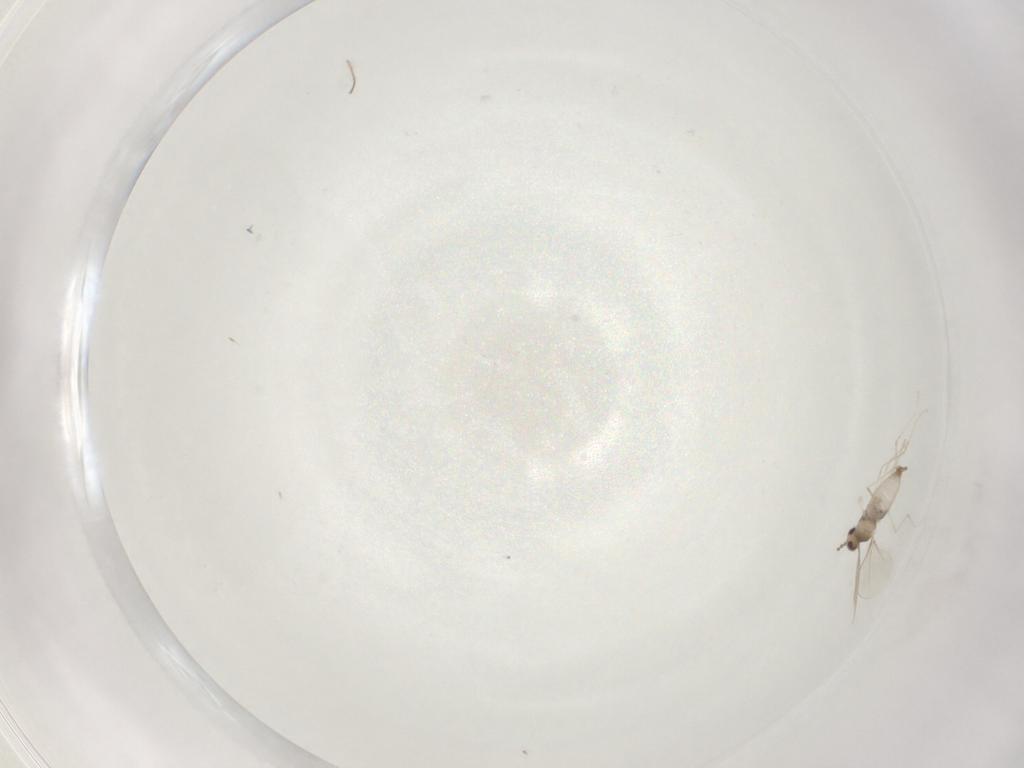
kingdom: Animalia
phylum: Arthropoda
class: Insecta
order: Diptera
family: Cecidomyiidae
